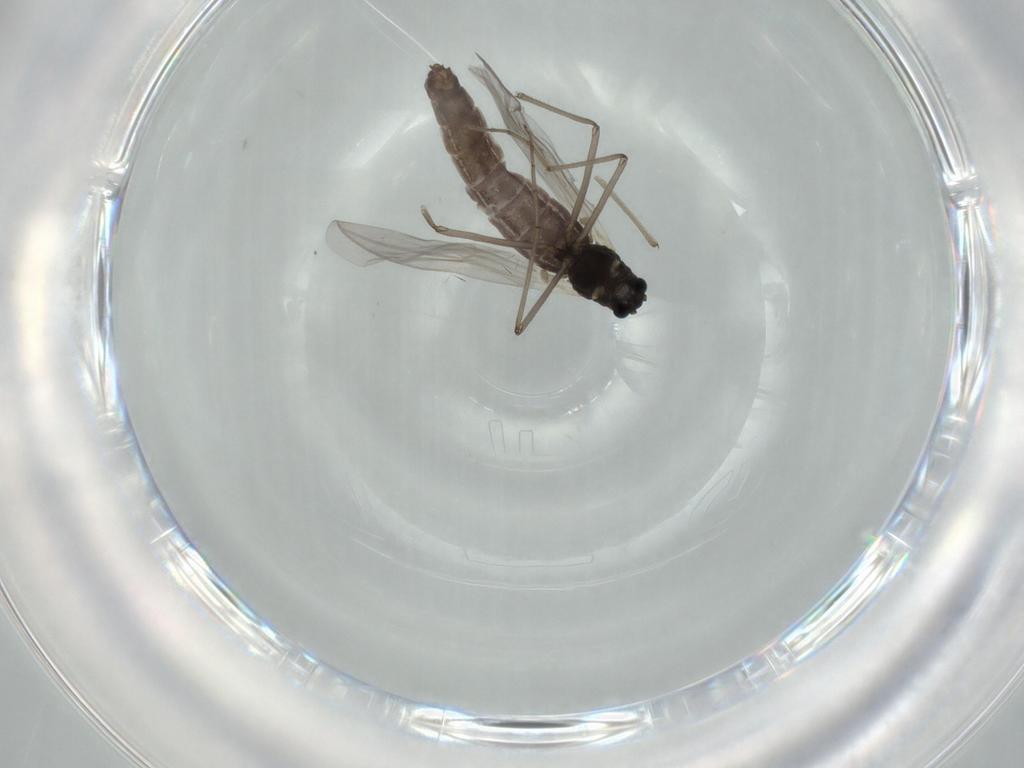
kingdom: Animalia
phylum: Arthropoda
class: Insecta
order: Diptera
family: Chironomidae
